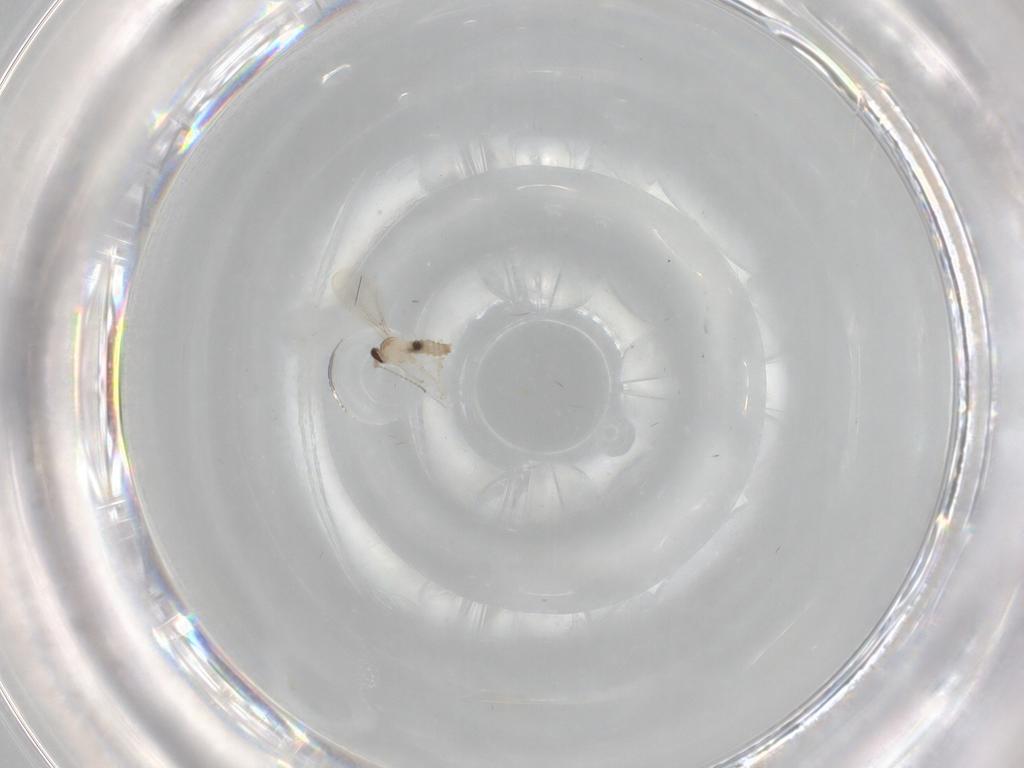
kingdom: Animalia
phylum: Arthropoda
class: Insecta
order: Diptera
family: Cecidomyiidae
